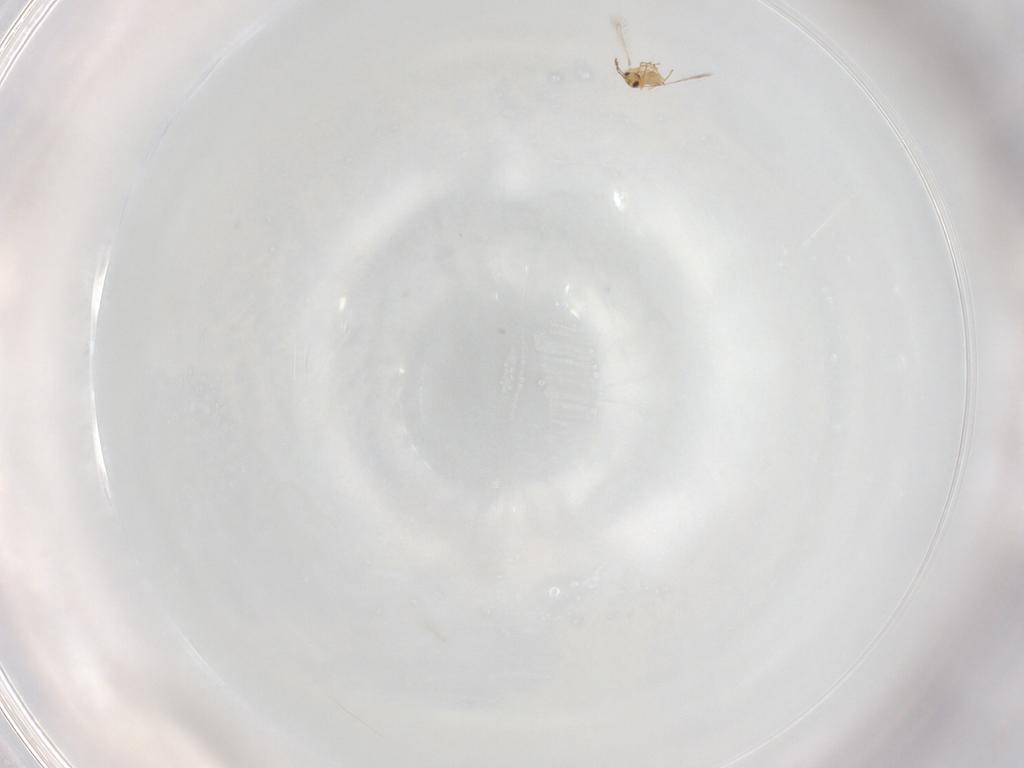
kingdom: Animalia
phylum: Arthropoda
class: Insecta
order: Hymenoptera
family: Mymaridae
